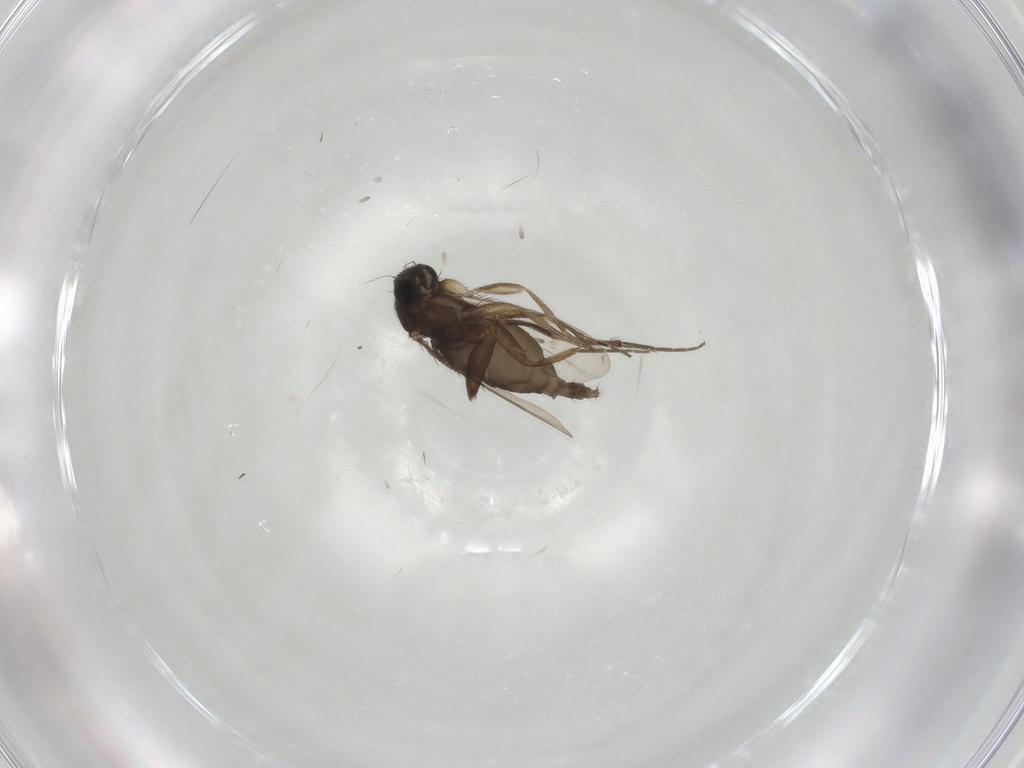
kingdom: Animalia
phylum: Arthropoda
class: Insecta
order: Diptera
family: Phoridae
